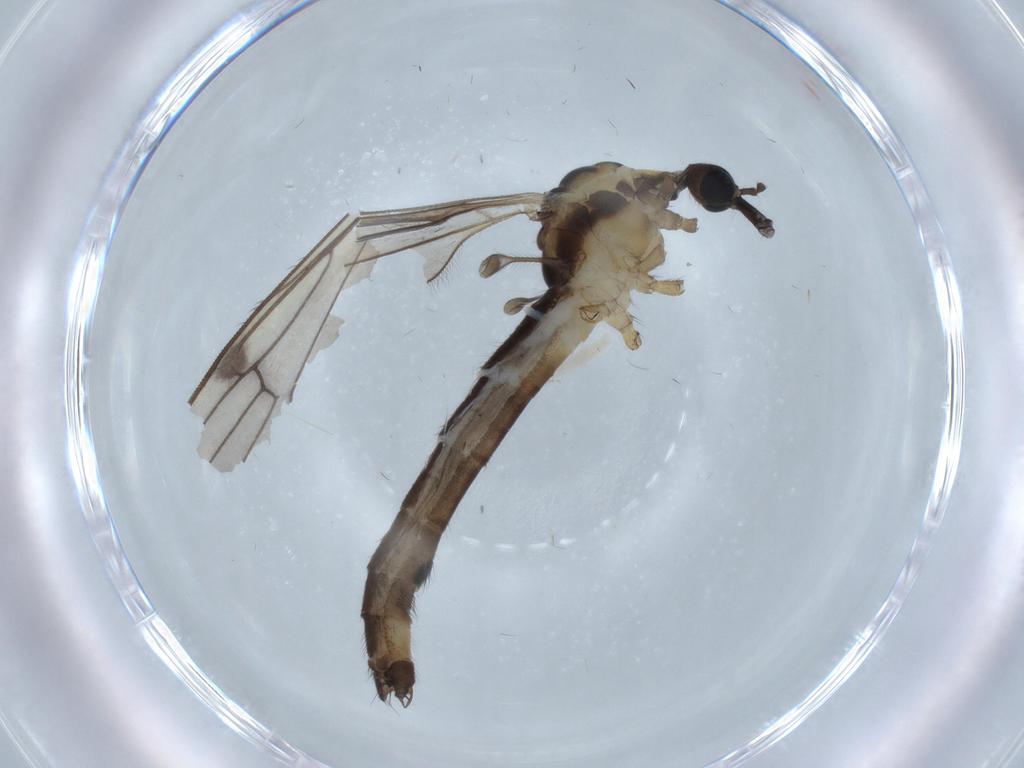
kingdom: Animalia
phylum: Arthropoda
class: Insecta
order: Diptera
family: Limoniidae
